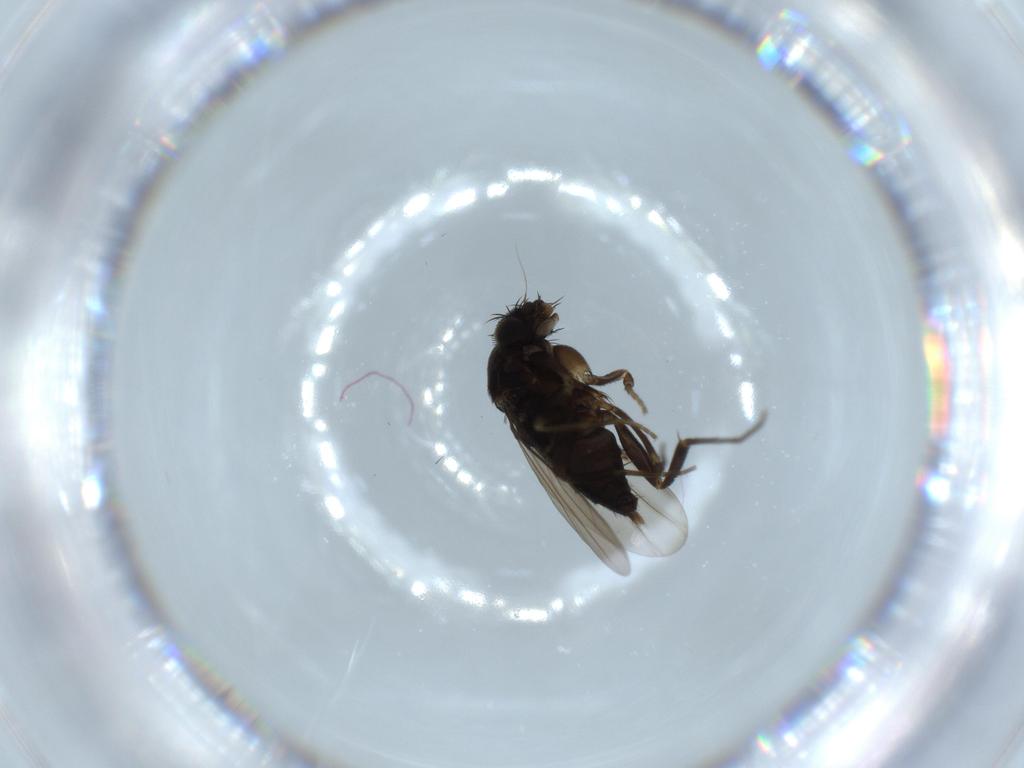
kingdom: Animalia
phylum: Arthropoda
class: Insecta
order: Diptera
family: Phoridae
